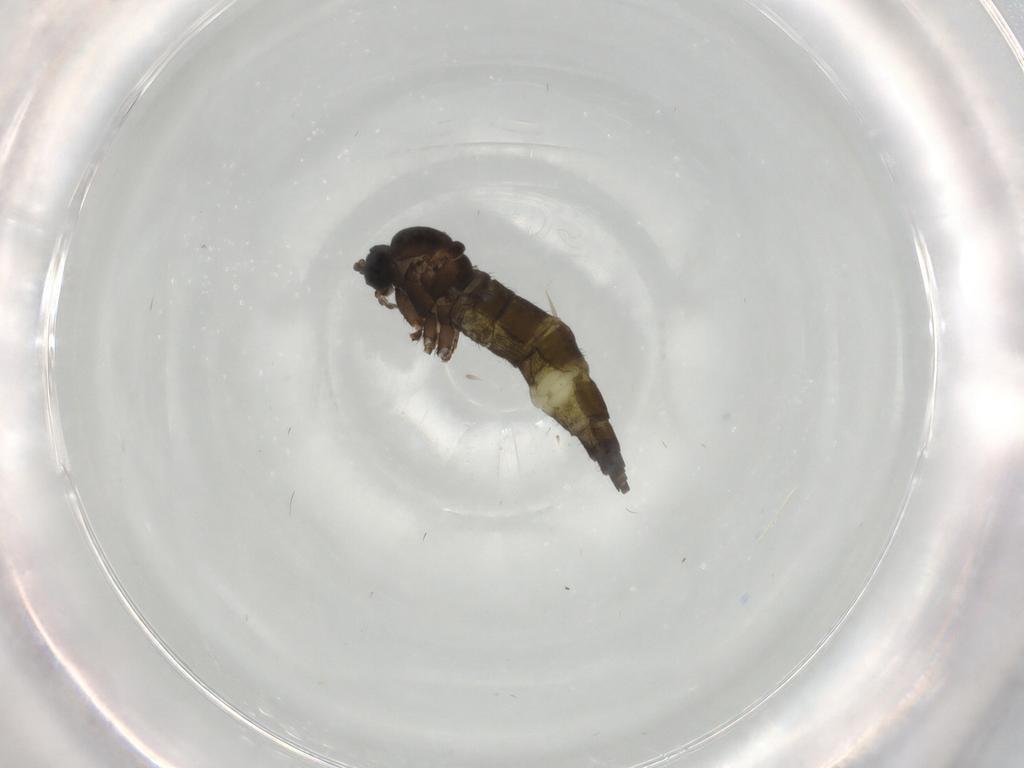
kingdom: Animalia
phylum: Arthropoda
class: Insecta
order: Diptera
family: Sciaridae
